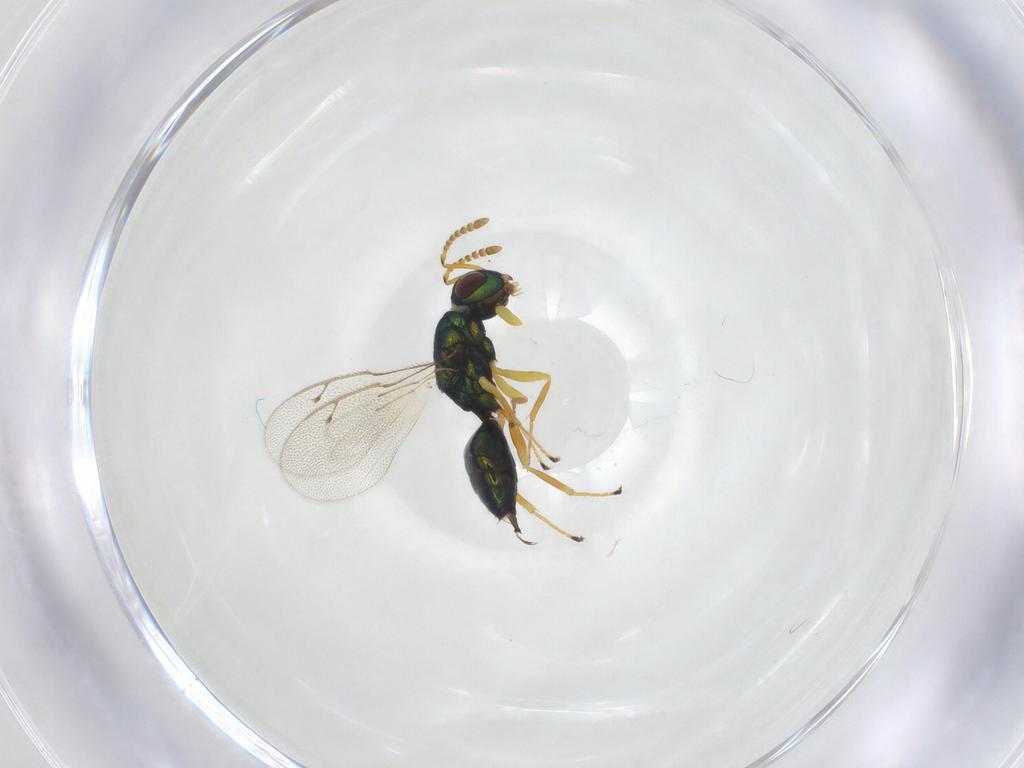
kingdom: Animalia
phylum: Arthropoda
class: Insecta
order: Hymenoptera
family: Pteromalidae
